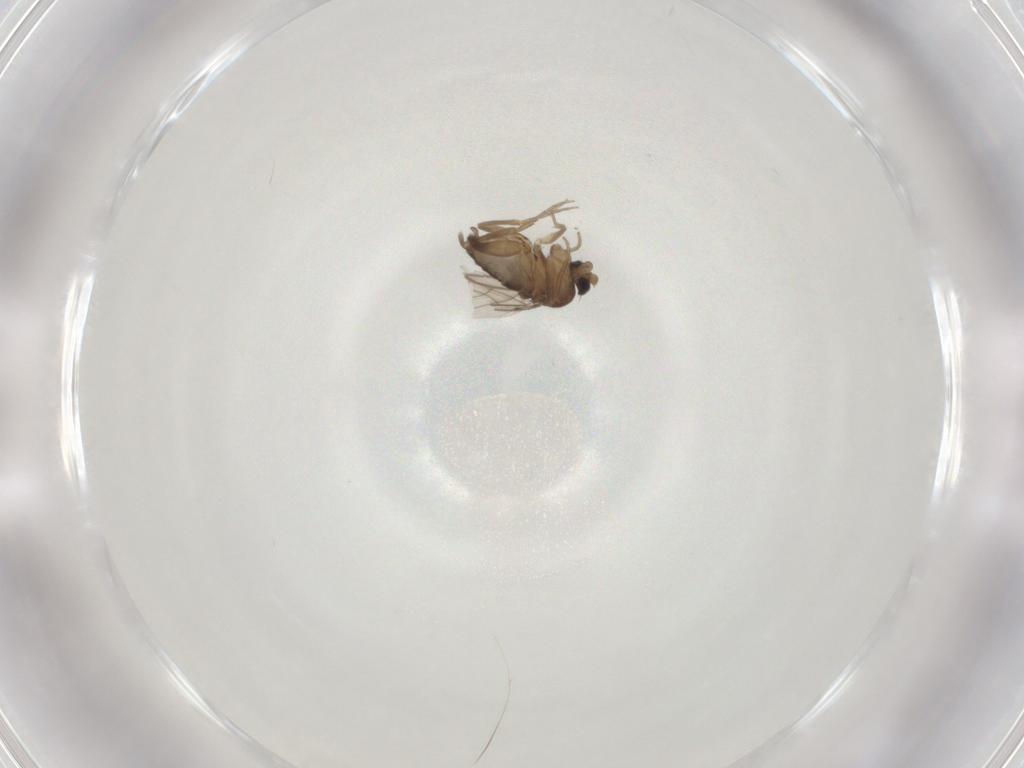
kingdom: Animalia
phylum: Arthropoda
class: Insecta
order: Diptera
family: Phoridae
